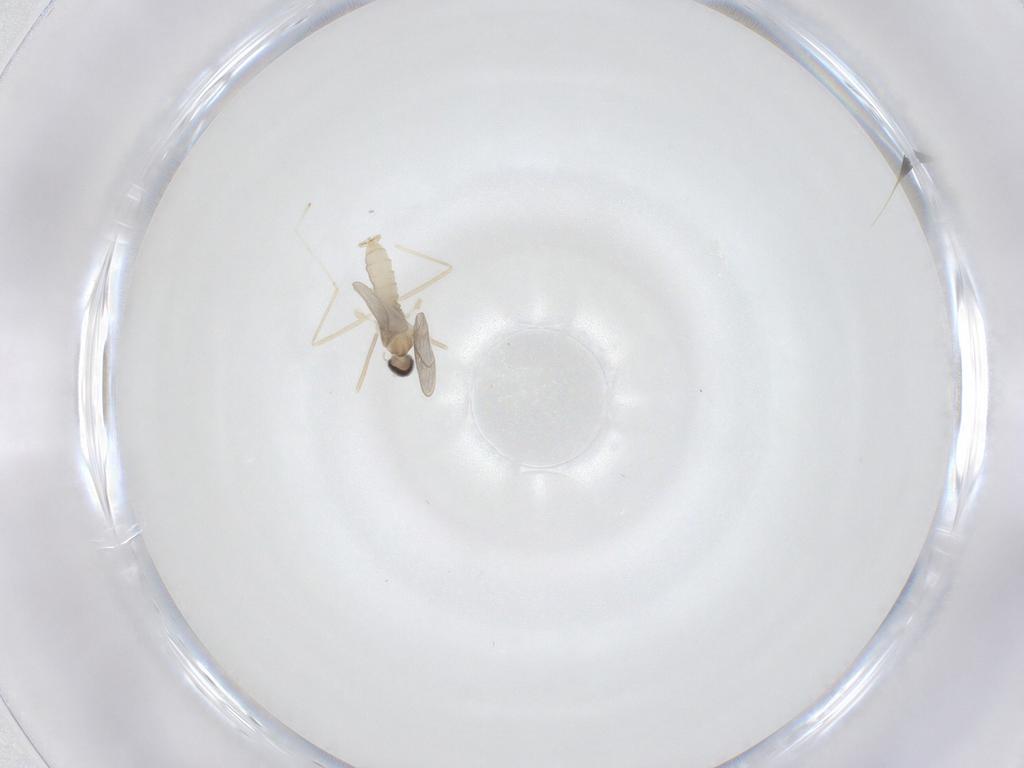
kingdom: Animalia
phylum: Arthropoda
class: Insecta
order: Diptera
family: Cecidomyiidae
